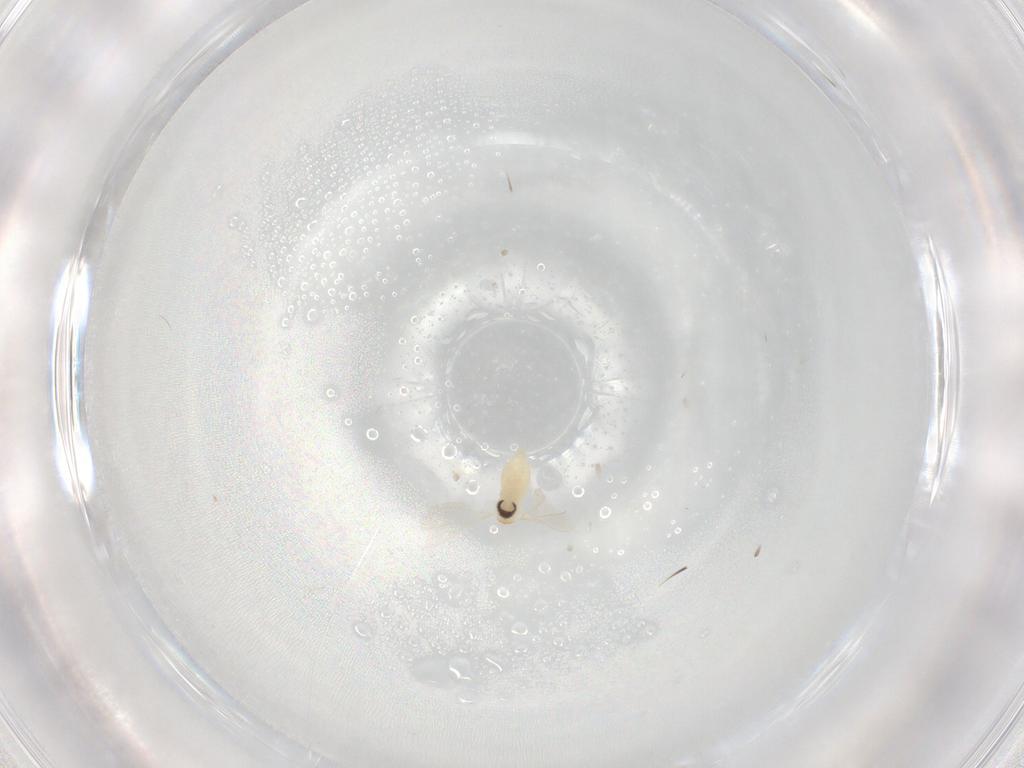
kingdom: Animalia
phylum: Arthropoda
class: Insecta
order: Diptera
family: Cecidomyiidae
